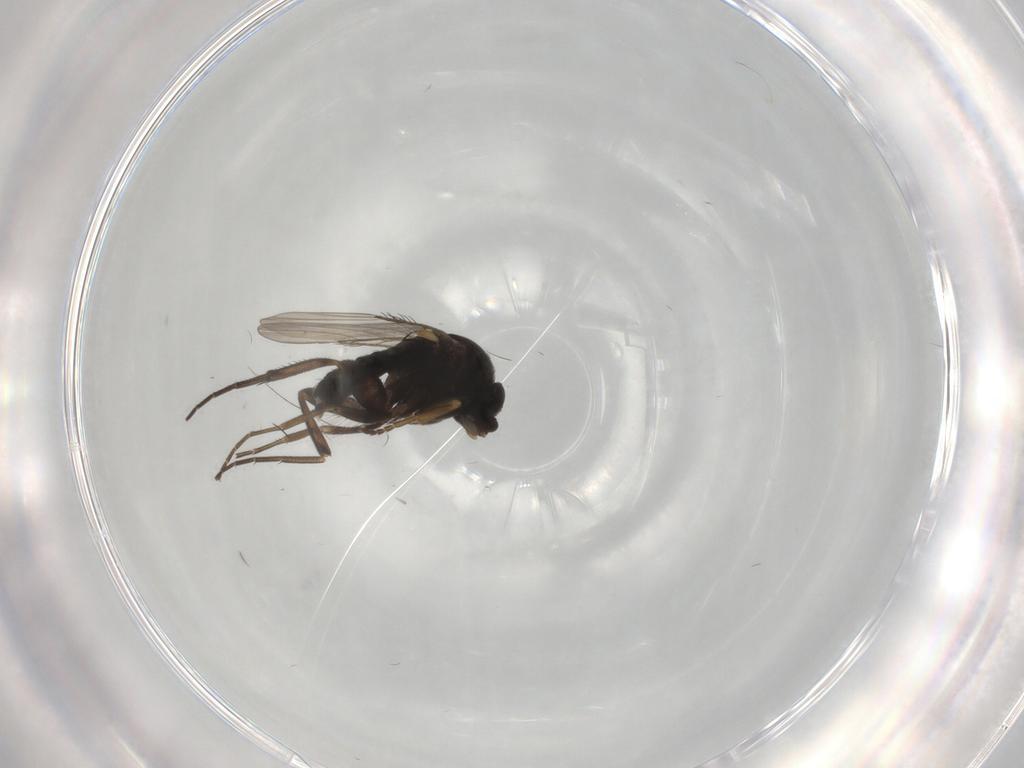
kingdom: Animalia
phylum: Arthropoda
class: Insecta
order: Diptera
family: Phoridae
